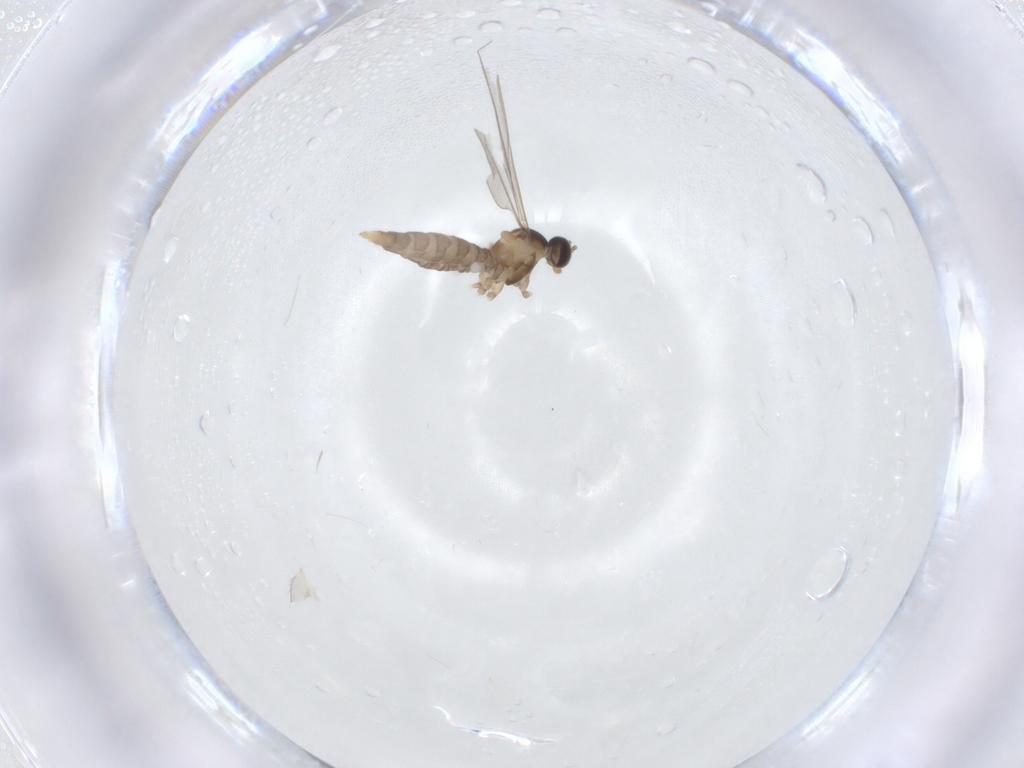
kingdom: Animalia
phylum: Arthropoda
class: Insecta
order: Diptera
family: Cecidomyiidae
